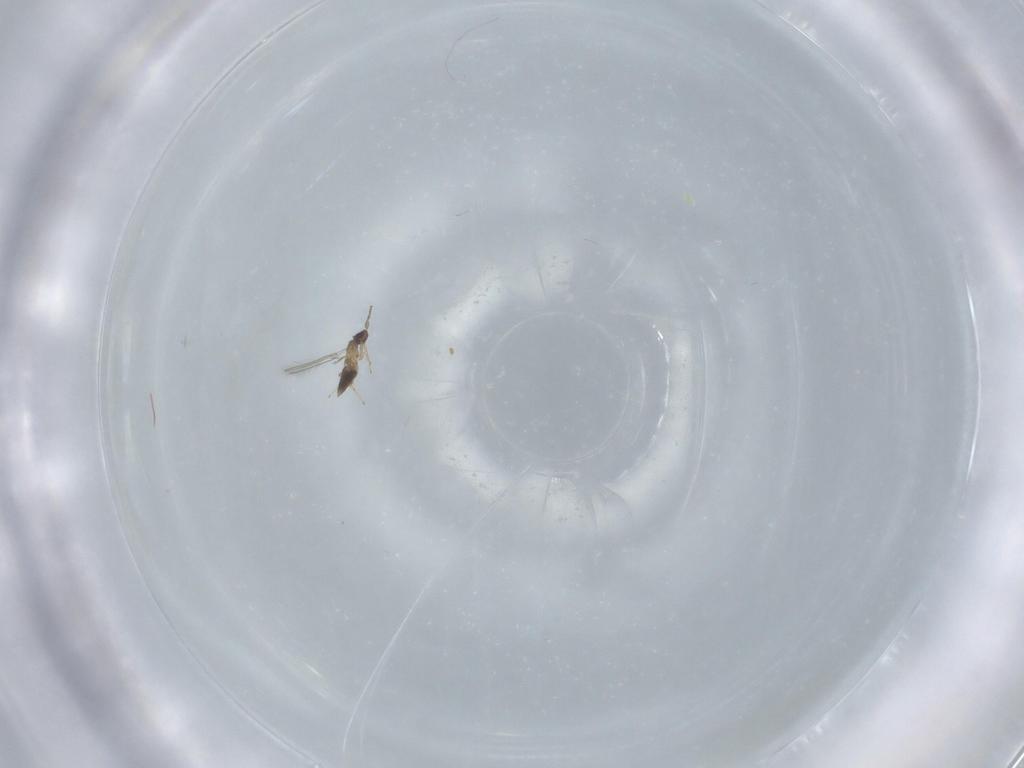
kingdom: Animalia
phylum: Arthropoda
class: Insecta
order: Hymenoptera
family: Mymaridae
